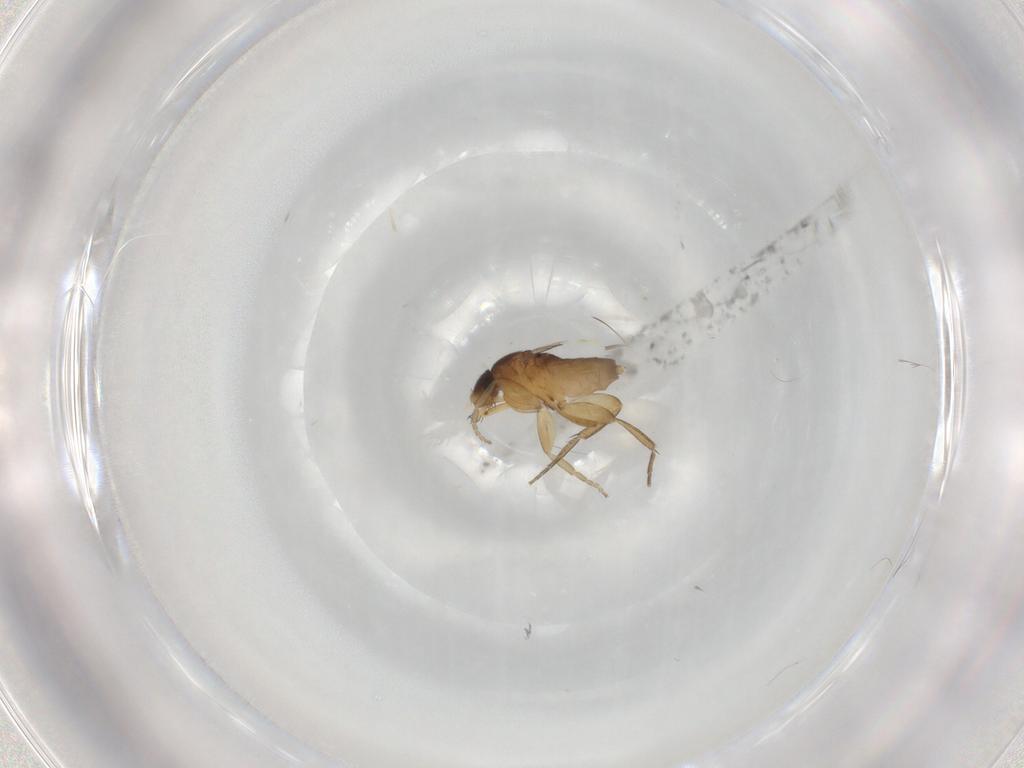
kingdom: Animalia
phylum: Arthropoda
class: Insecta
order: Diptera
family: Phoridae
